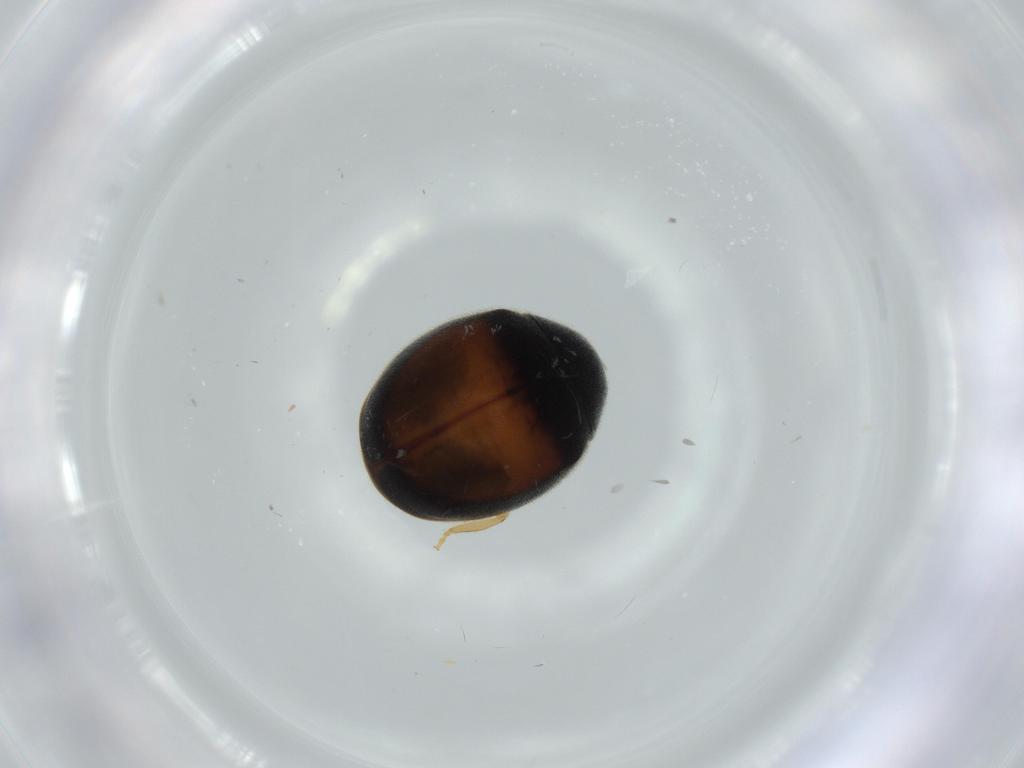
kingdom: Animalia
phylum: Arthropoda
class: Insecta
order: Coleoptera
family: Coccinellidae
